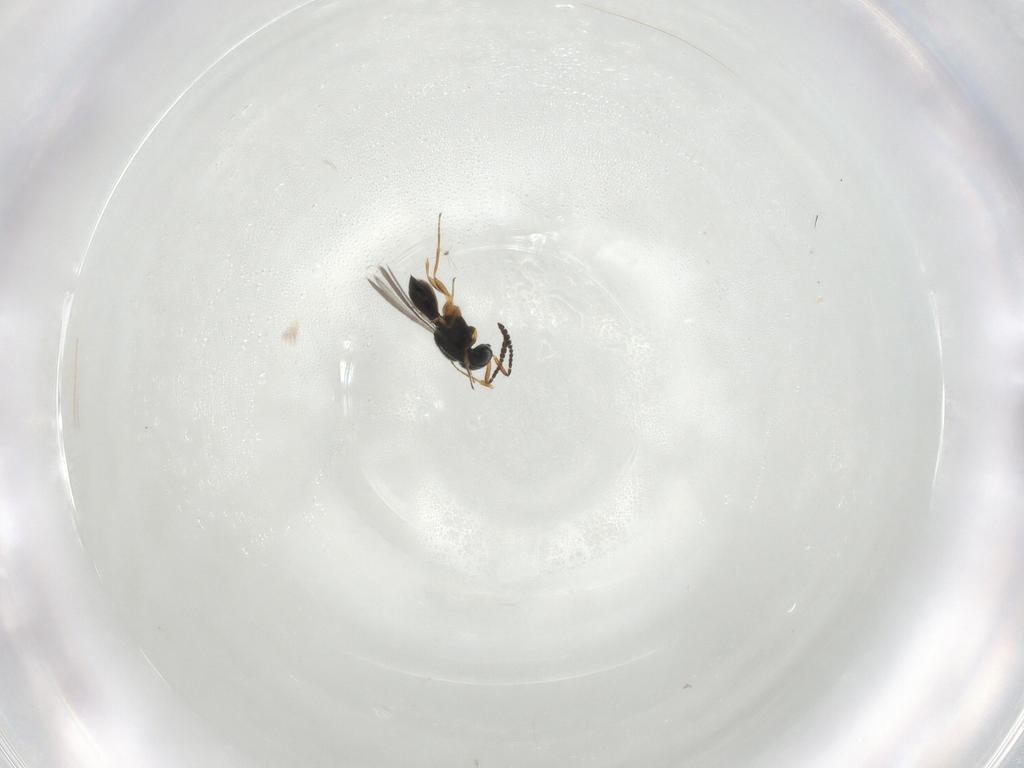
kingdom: Animalia
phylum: Arthropoda
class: Insecta
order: Hymenoptera
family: Scelionidae
